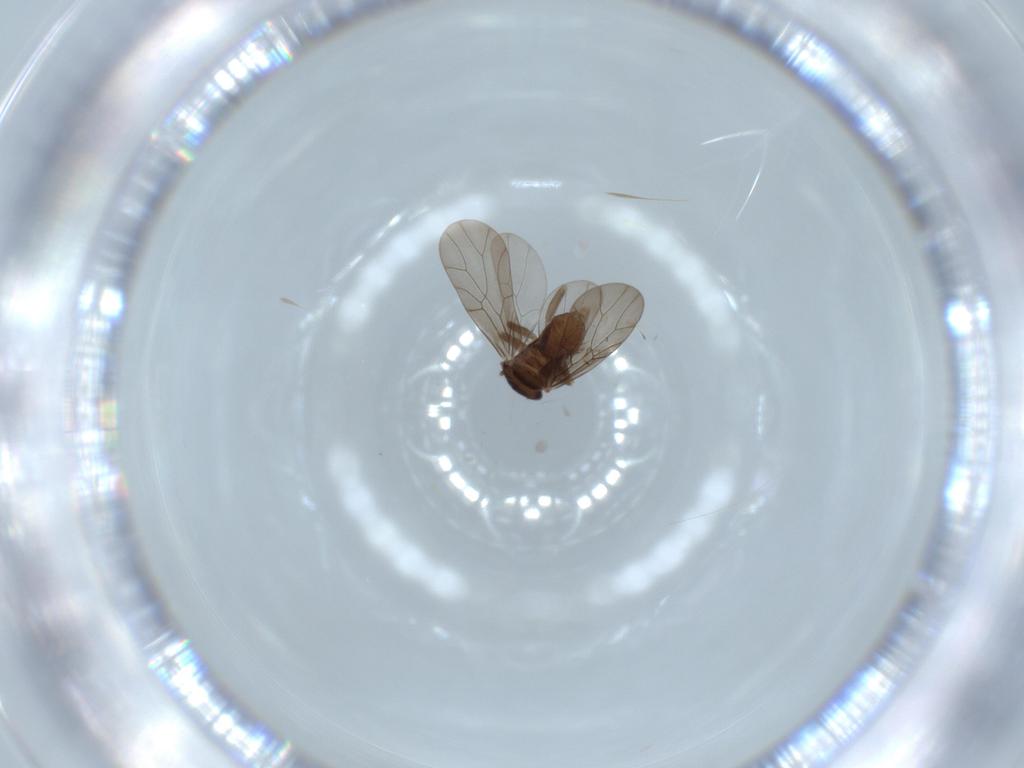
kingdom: Animalia
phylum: Arthropoda
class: Insecta
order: Psocodea
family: Lepidopsocidae
